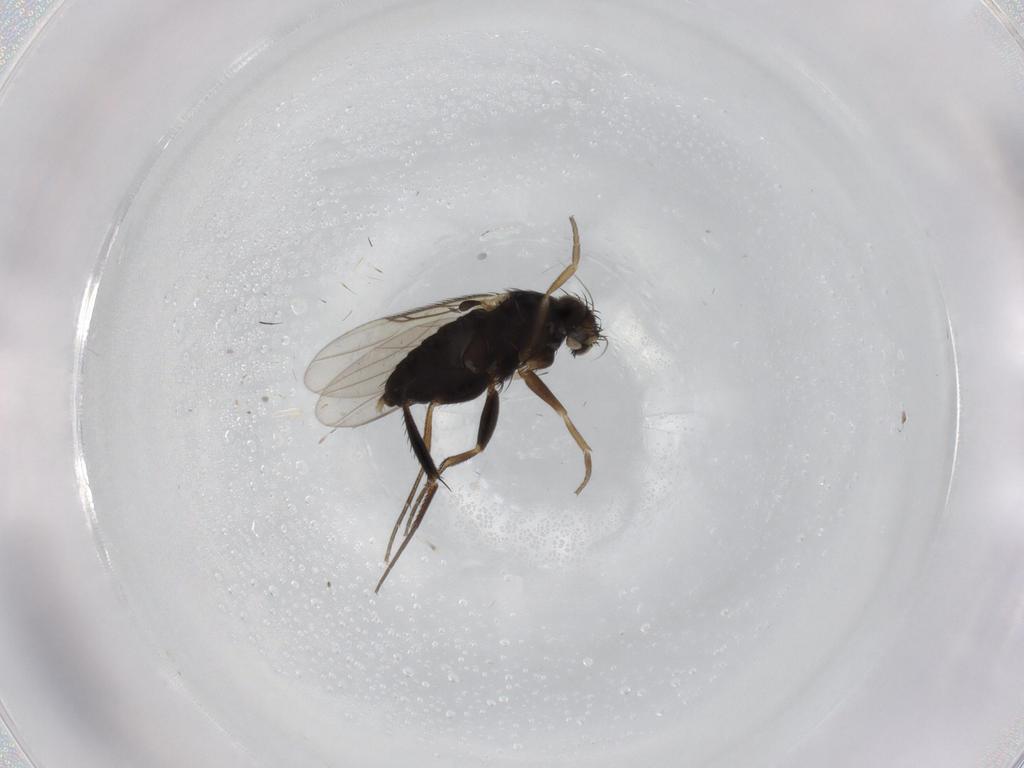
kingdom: Animalia
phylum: Arthropoda
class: Insecta
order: Diptera
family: Phoridae
